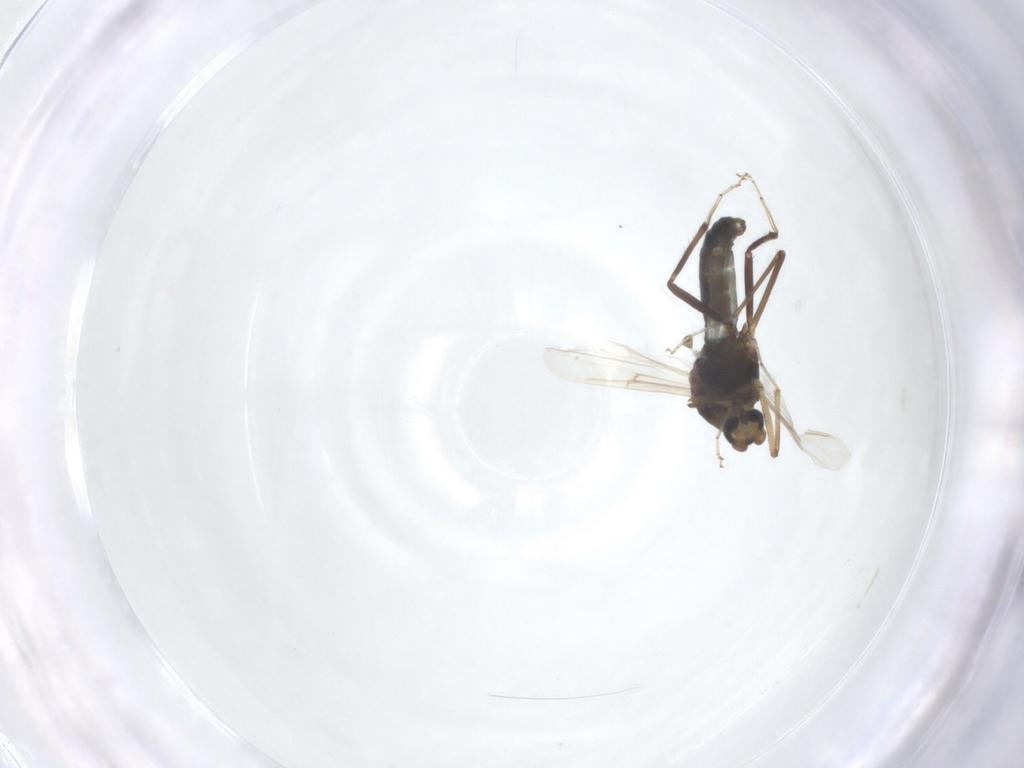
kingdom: Animalia
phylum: Arthropoda
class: Insecta
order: Diptera
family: Ceratopogonidae
